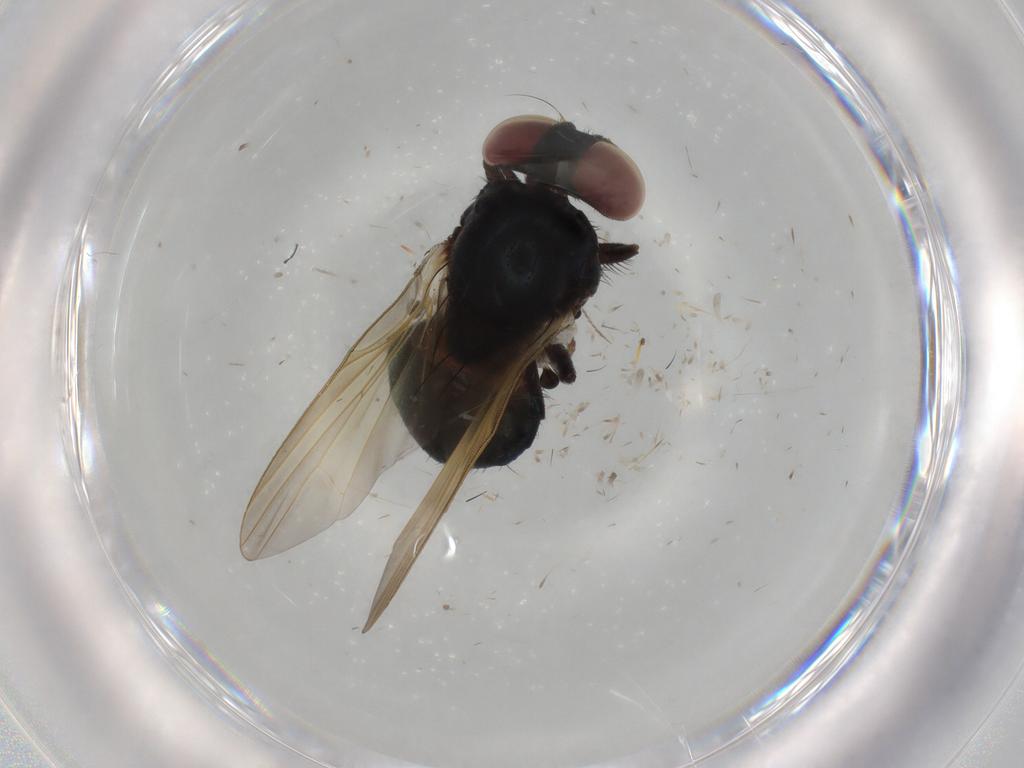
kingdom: Animalia
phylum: Arthropoda
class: Insecta
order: Diptera
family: Lonchaeidae
